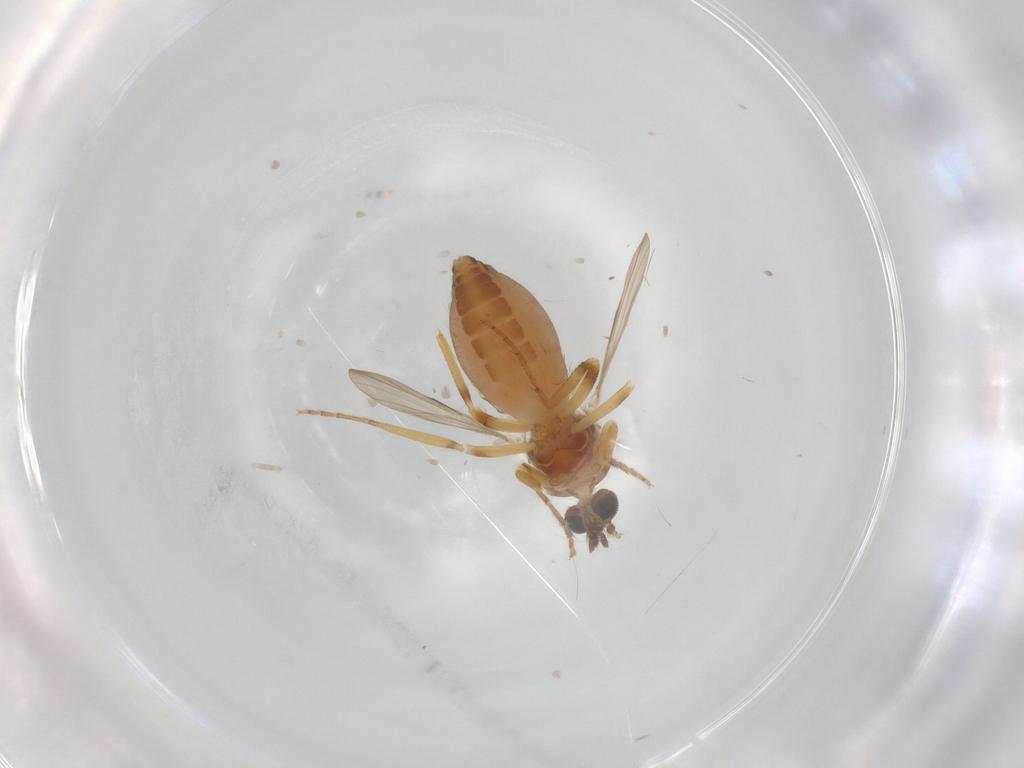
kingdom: Animalia
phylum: Arthropoda
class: Insecta
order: Diptera
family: Ceratopogonidae
